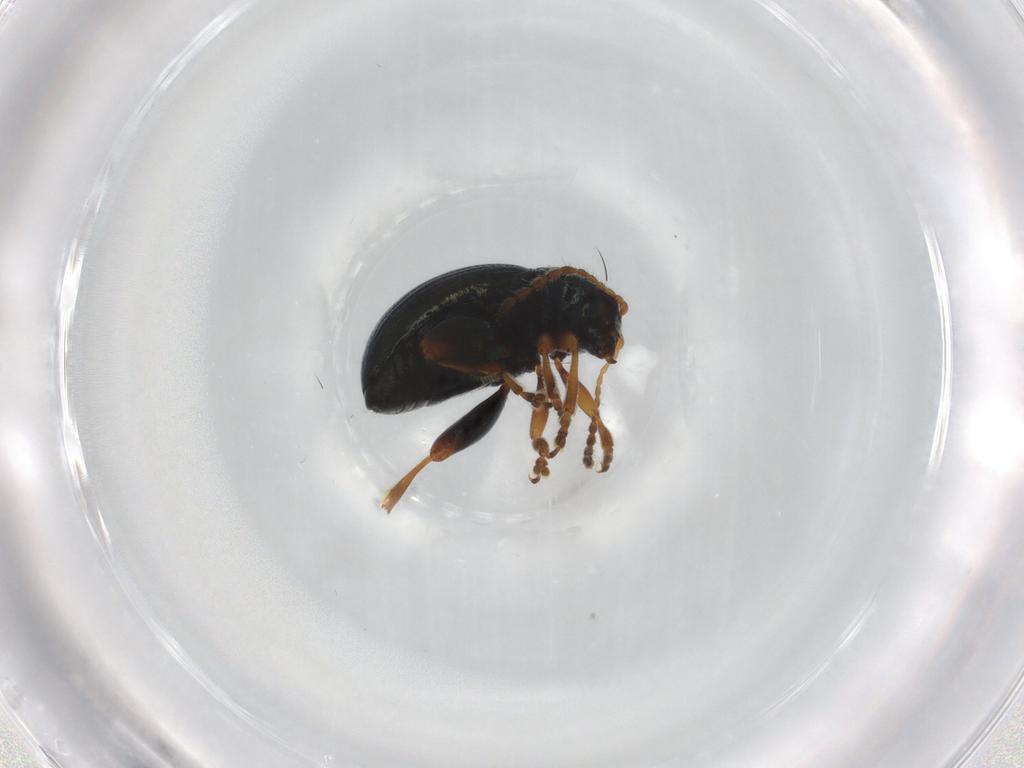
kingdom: Animalia
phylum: Arthropoda
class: Insecta
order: Coleoptera
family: Chrysomelidae
